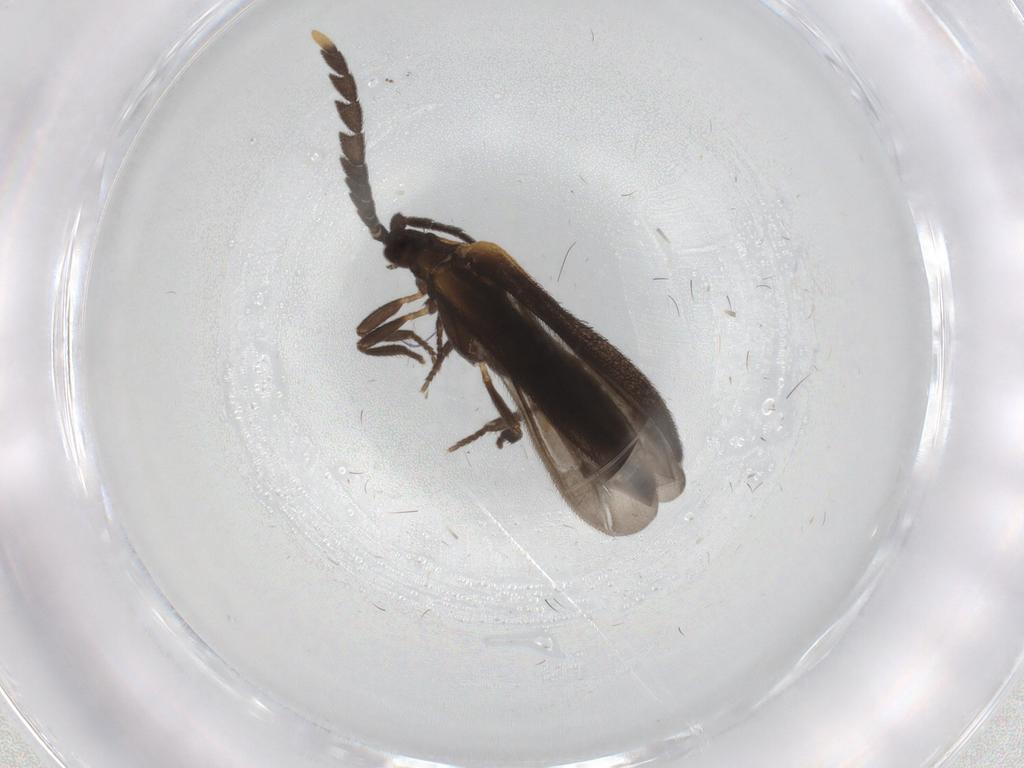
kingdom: Animalia
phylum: Arthropoda
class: Insecta
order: Coleoptera
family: Lycidae
